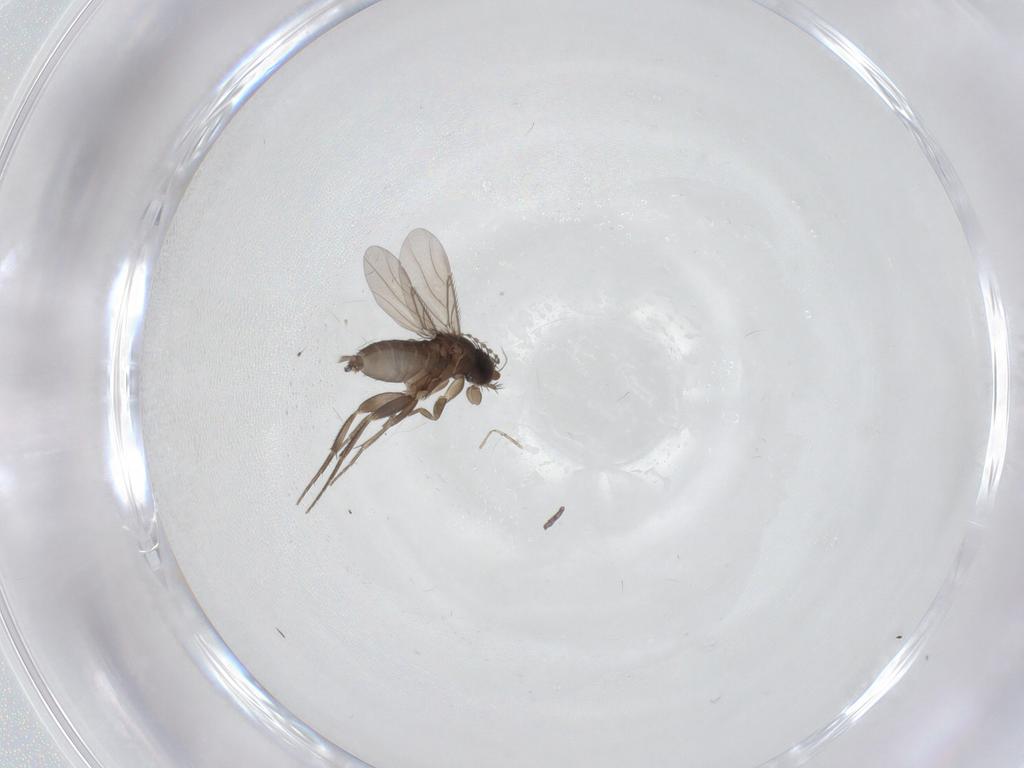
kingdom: Animalia
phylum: Arthropoda
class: Insecta
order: Diptera
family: Phoridae
